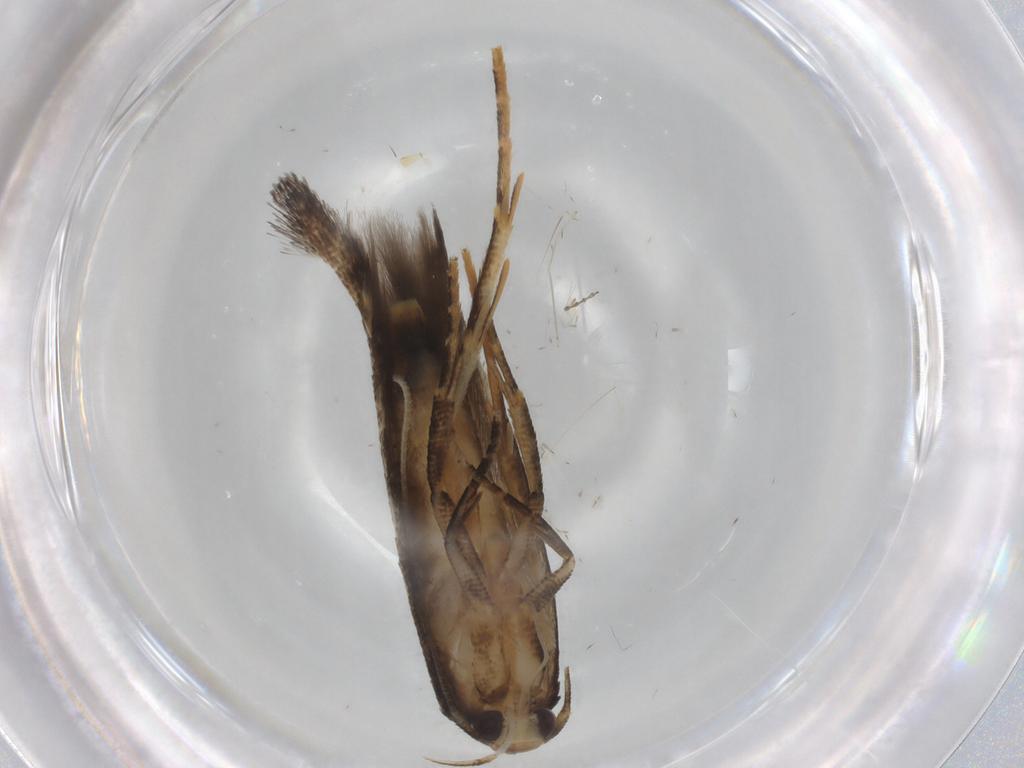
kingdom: Animalia
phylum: Arthropoda
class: Insecta
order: Lepidoptera
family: Cosmopterigidae
